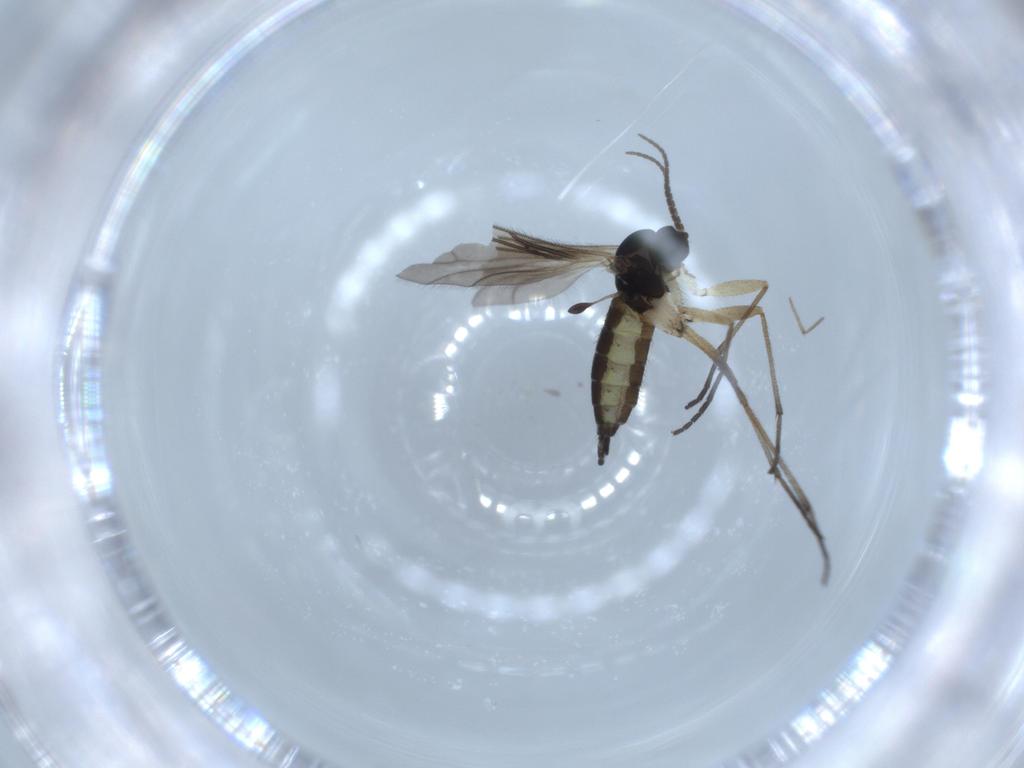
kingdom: Animalia
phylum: Arthropoda
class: Insecta
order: Diptera
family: Sciaridae
